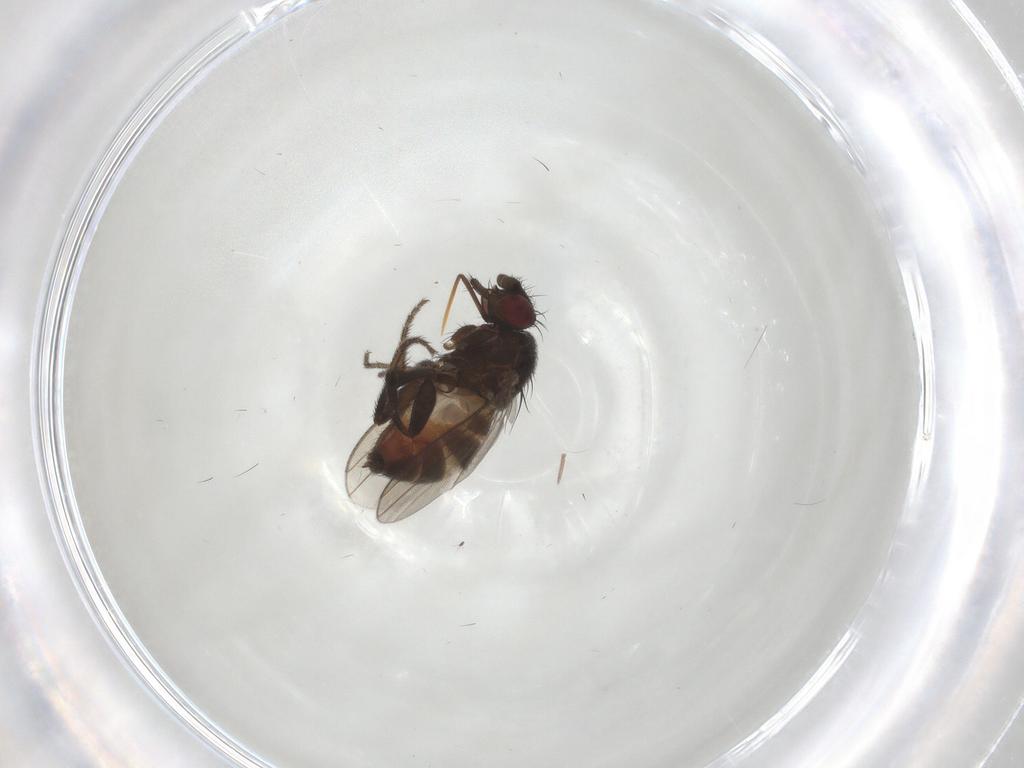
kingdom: Animalia
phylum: Arthropoda
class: Insecta
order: Diptera
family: Milichiidae
